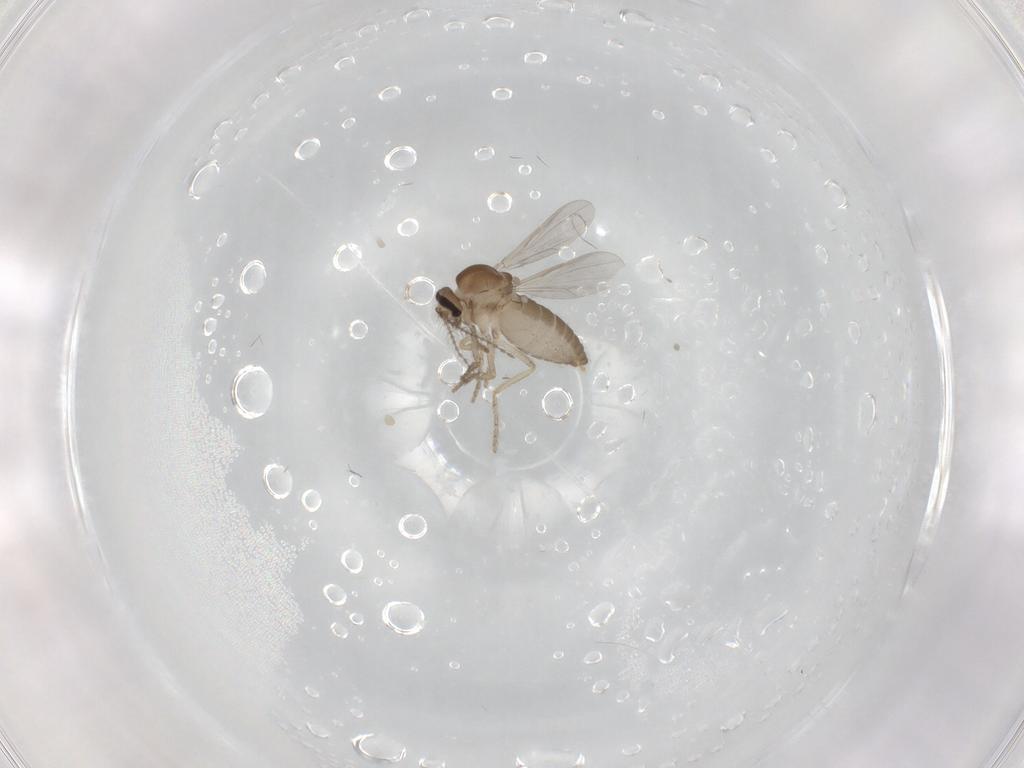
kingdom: Animalia
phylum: Arthropoda
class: Insecta
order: Diptera
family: Ceratopogonidae
